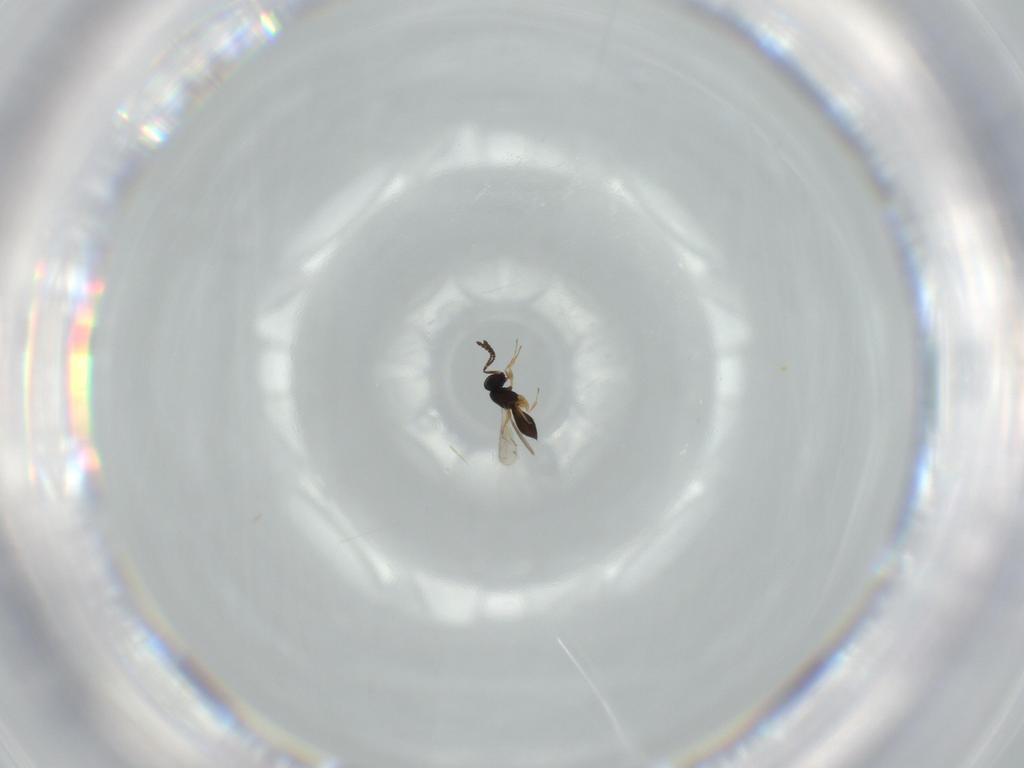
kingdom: Animalia
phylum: Arthropoda
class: Insecta
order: Hymenoptera
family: Scelionidae
